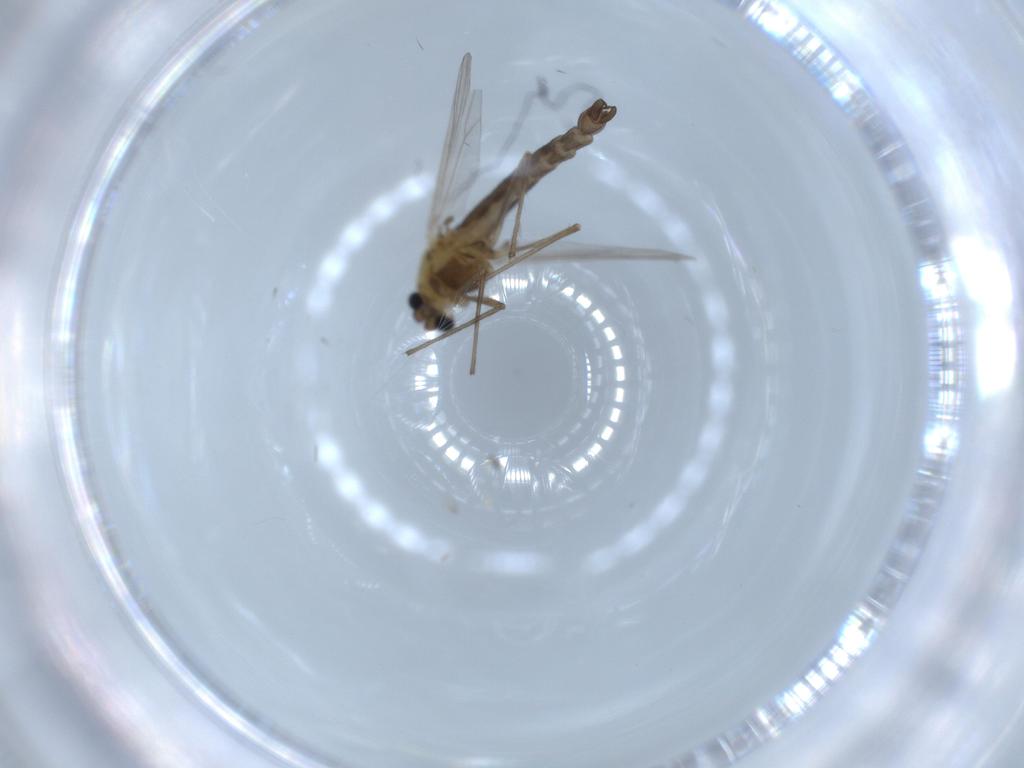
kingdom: Animalia
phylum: Arthropoda
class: Insecta
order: Diptera
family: Chironomidae
